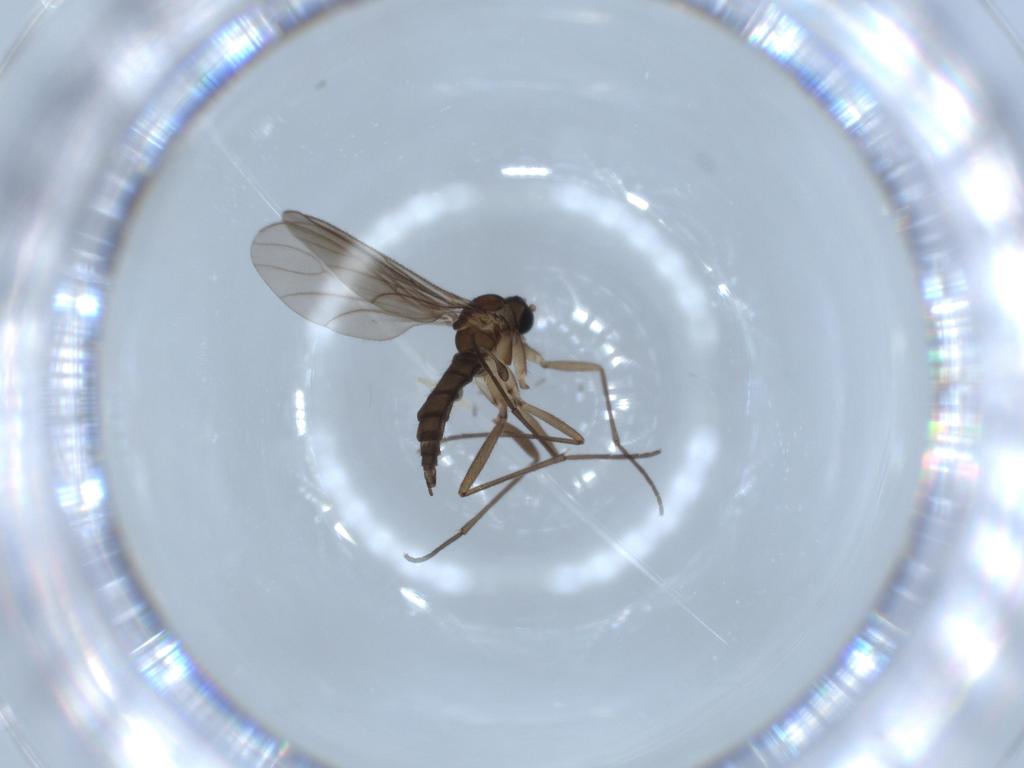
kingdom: Animalia
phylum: Arthropoda
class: Insecta
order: Diptera
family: Sciaridae
